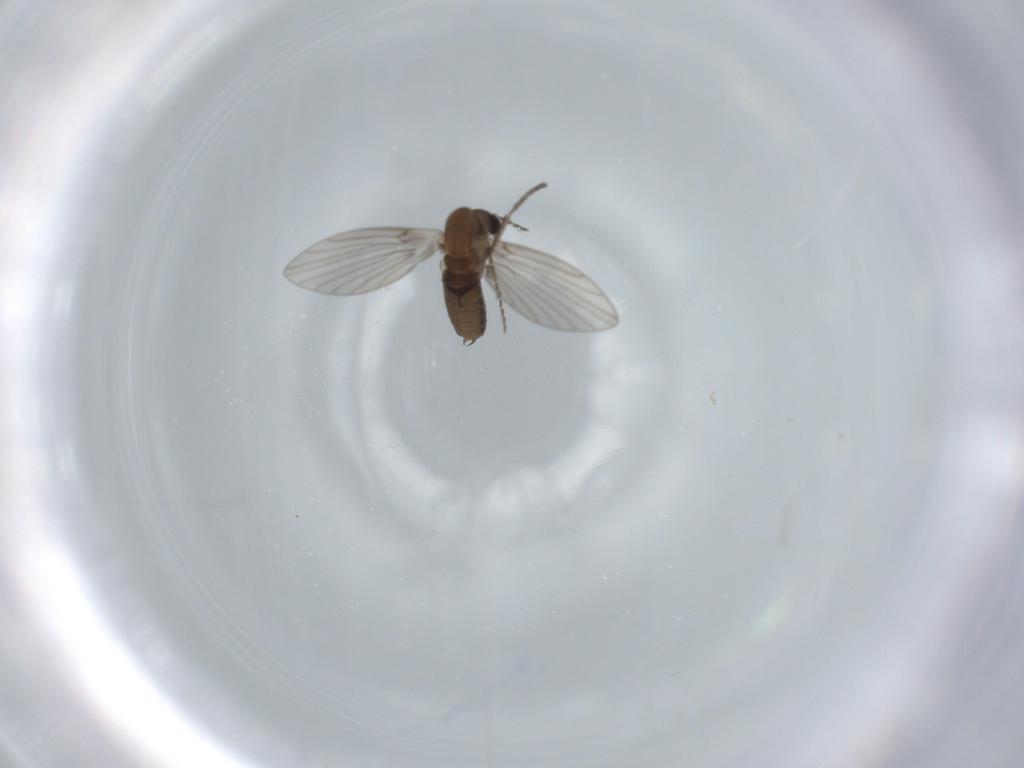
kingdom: Animalia
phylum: Arthropoda
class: Insecta
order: Diptera
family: Psychodidae
